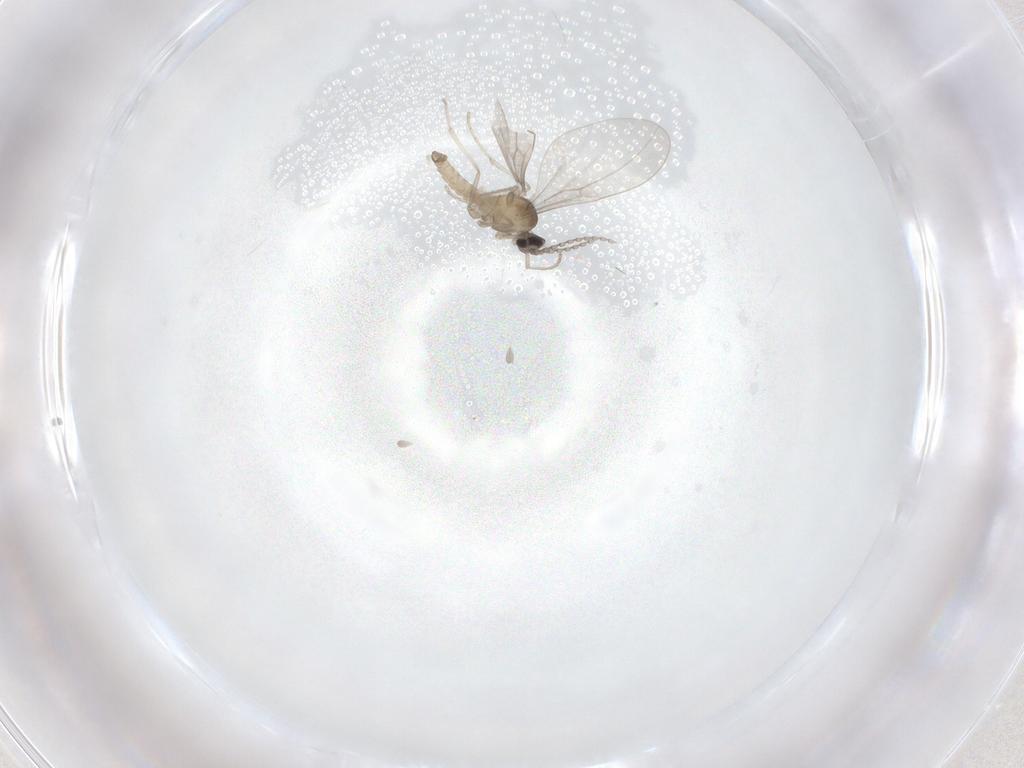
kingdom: Animalia
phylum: Arthropoda
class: Insecta
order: Diptera
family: Cecidomyiidae
